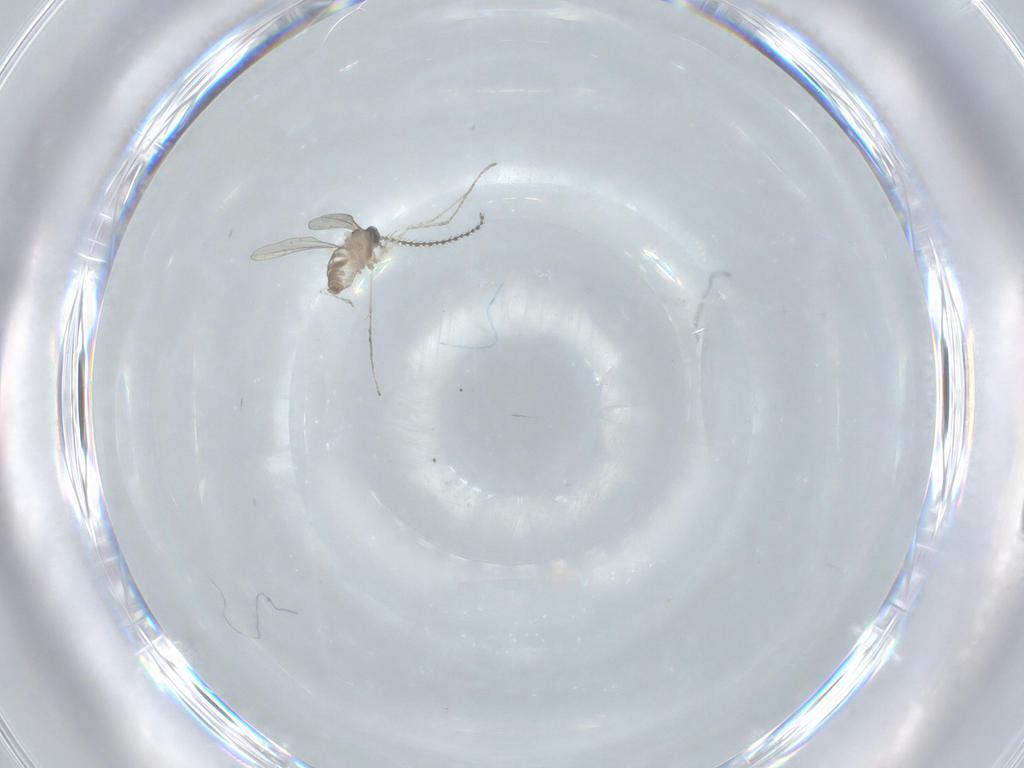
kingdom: Animalia
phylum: Arthropoda
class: Insecta
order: Diptera
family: Cecidomyiidae
